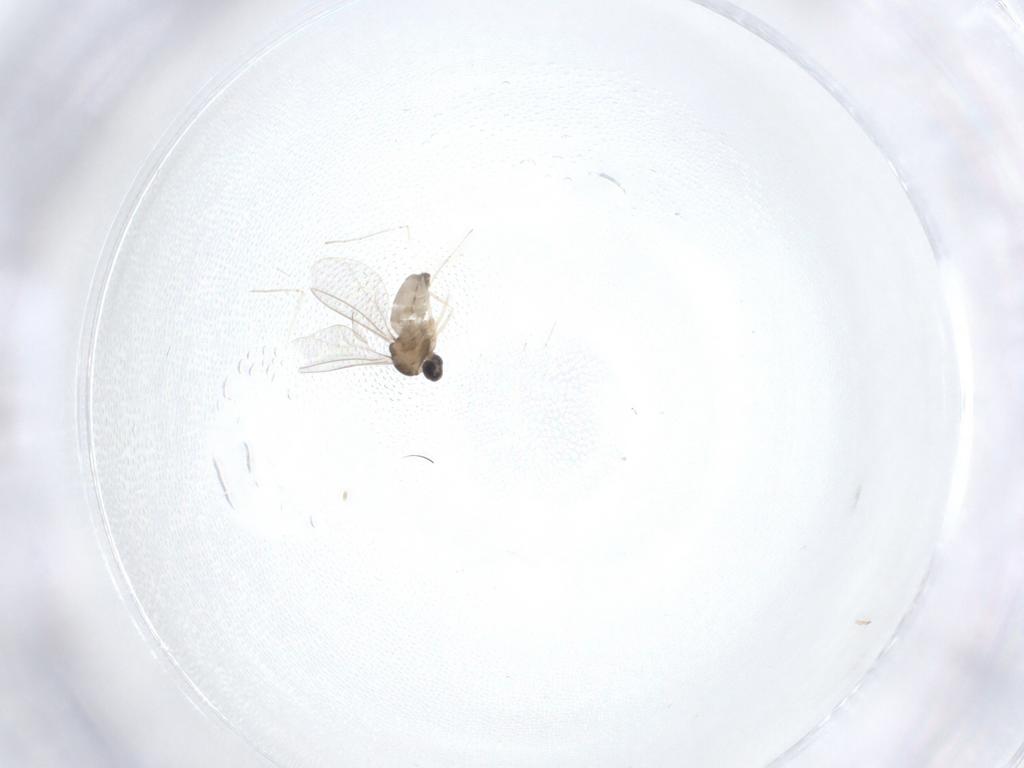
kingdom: Animalia
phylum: Arthropoda
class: Insecta
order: Diptera
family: Cecidomyiidae
